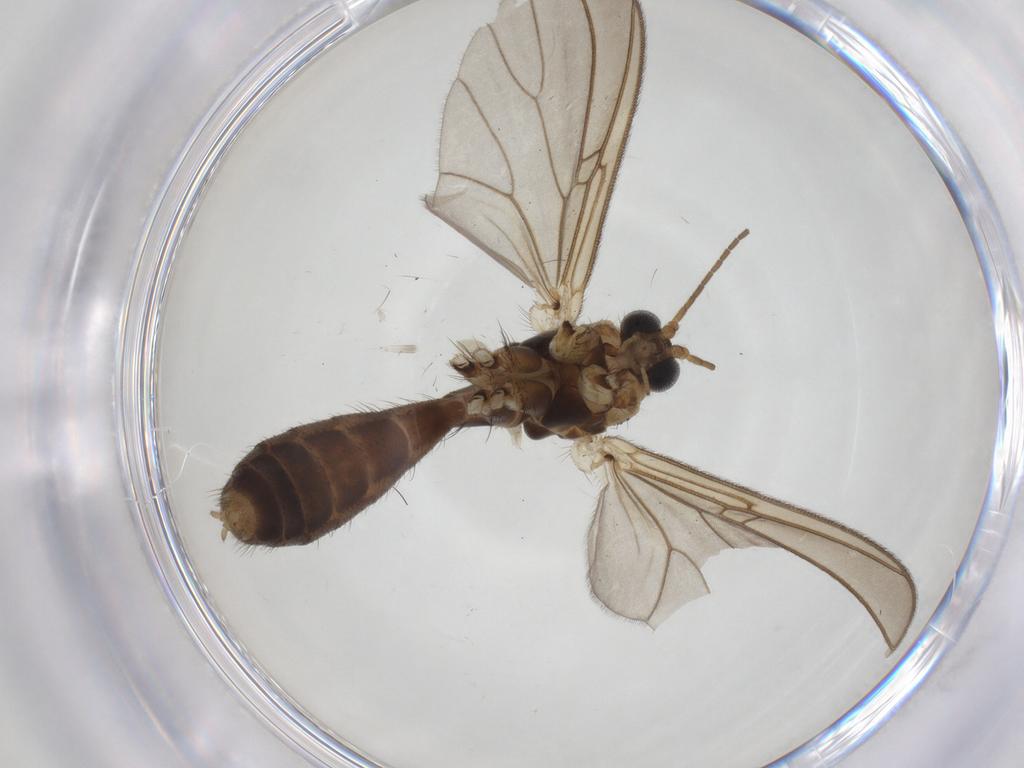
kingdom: Animalia
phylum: Arthropoda
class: Insecta
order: Diptera
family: Mycetophilidae
